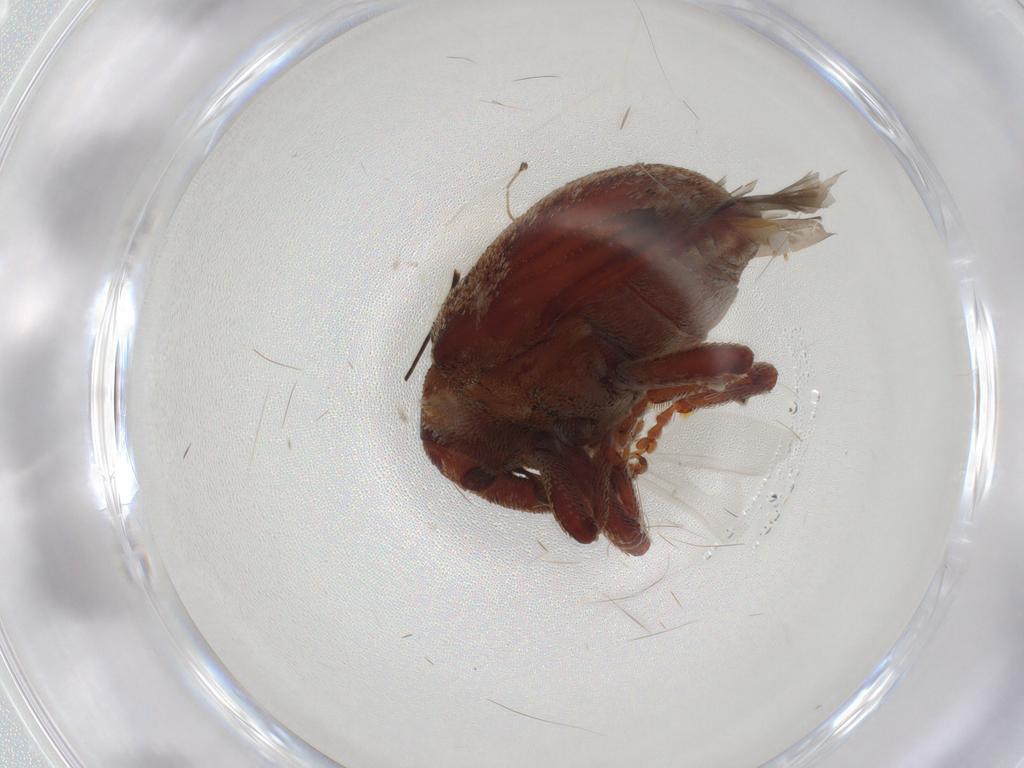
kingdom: Animalia
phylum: Arthropoda
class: Insecta
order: Coleoptera
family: Curculionidae
